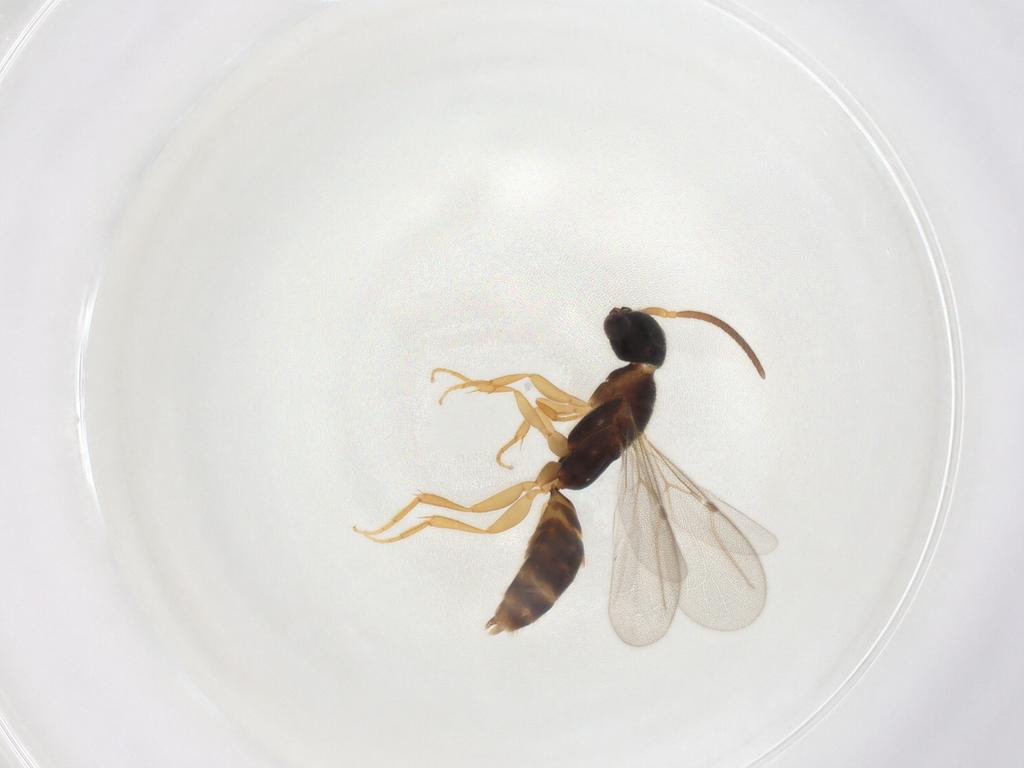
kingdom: Animalia
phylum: Arthropoda
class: Insecta
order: Hymenoptera
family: Bethylidae
